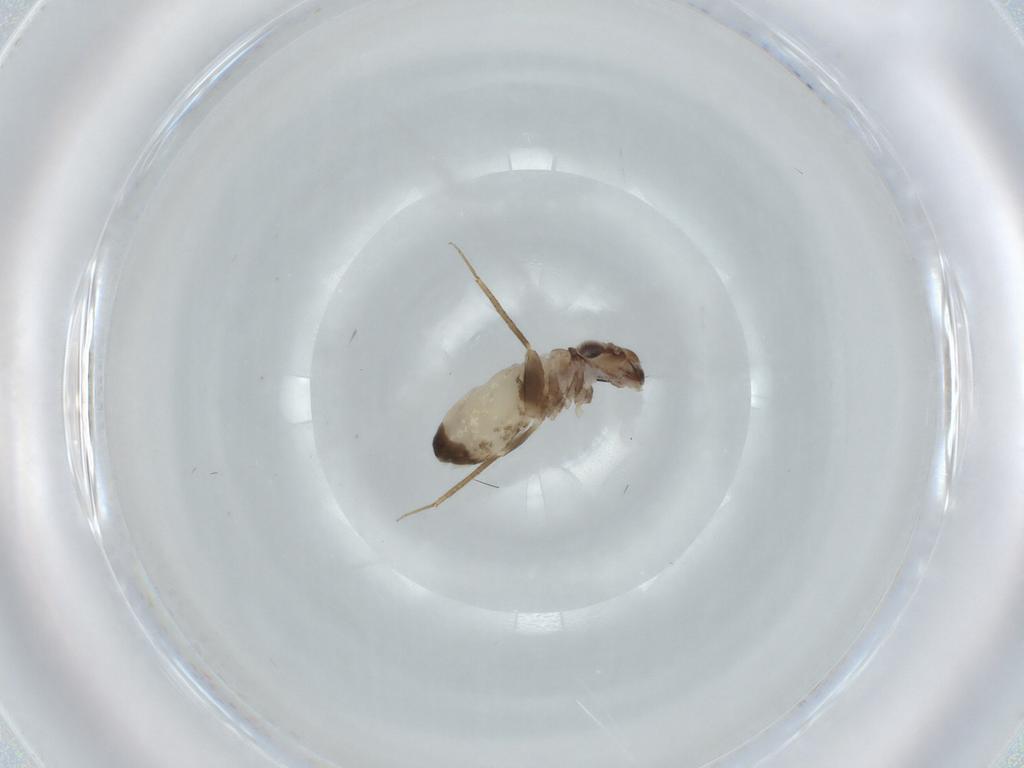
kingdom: Animalia
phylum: Arthropoda
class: Insecta
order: Psocodea
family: Lepidopsocidae
